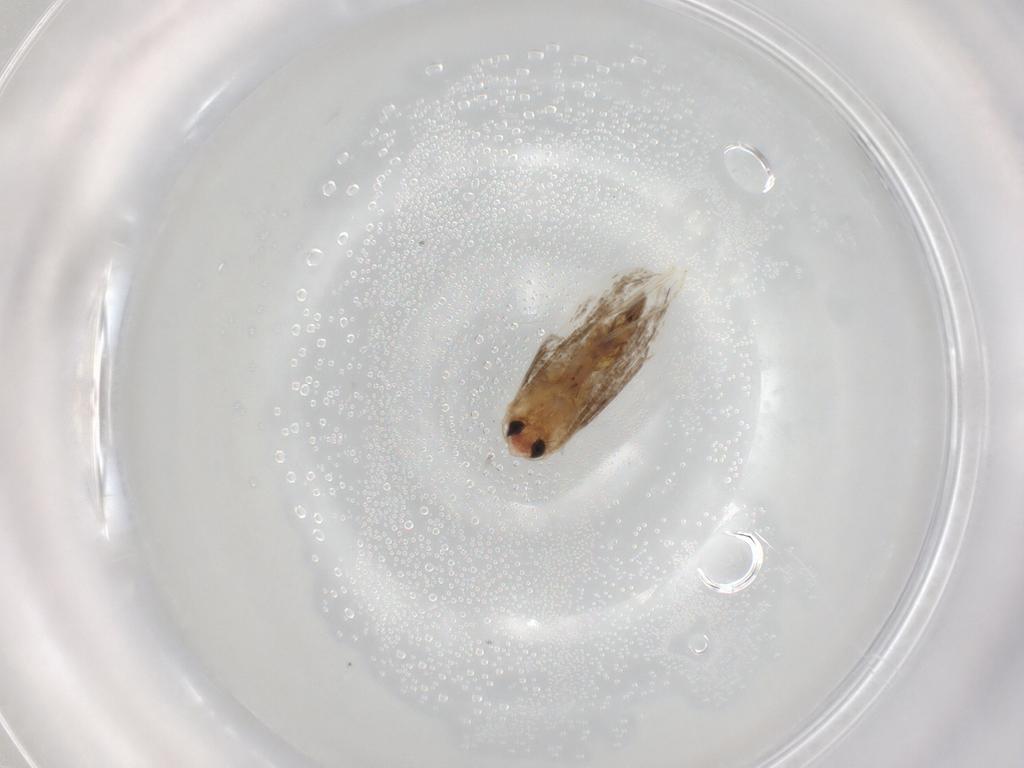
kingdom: Animalia
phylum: Arthropoda
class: Insecta
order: Lepidoptera
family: Lyonetiidae
